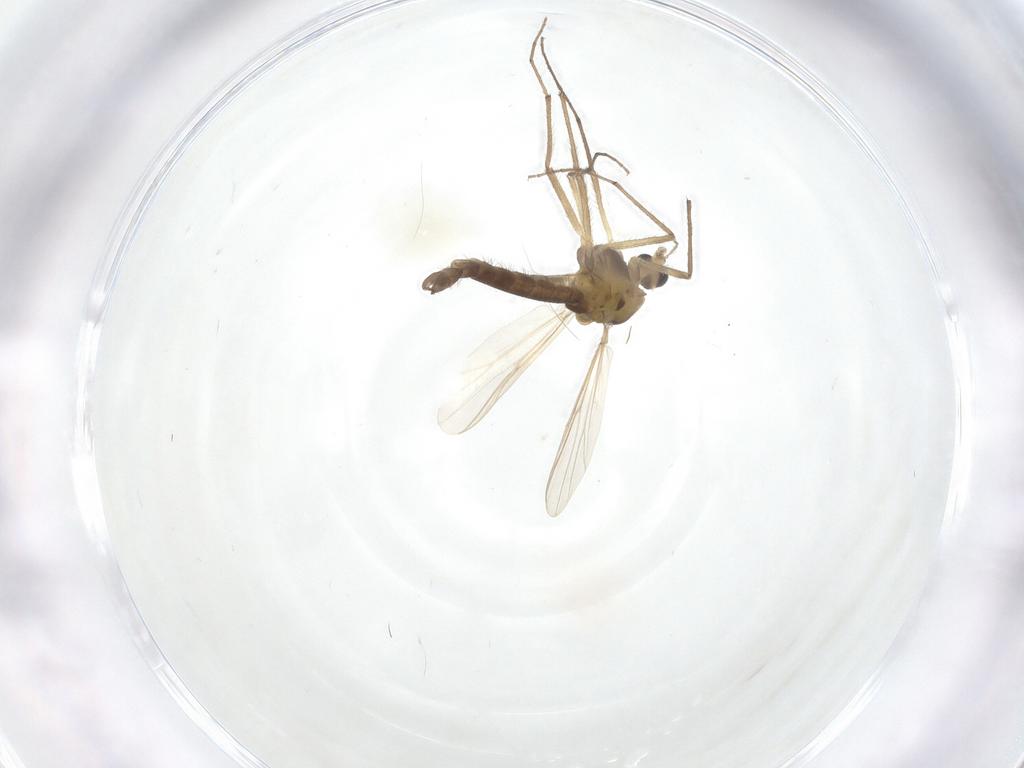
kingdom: Animalia
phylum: Arthropoda
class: Insecta
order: Diptera
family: Chironomidae
